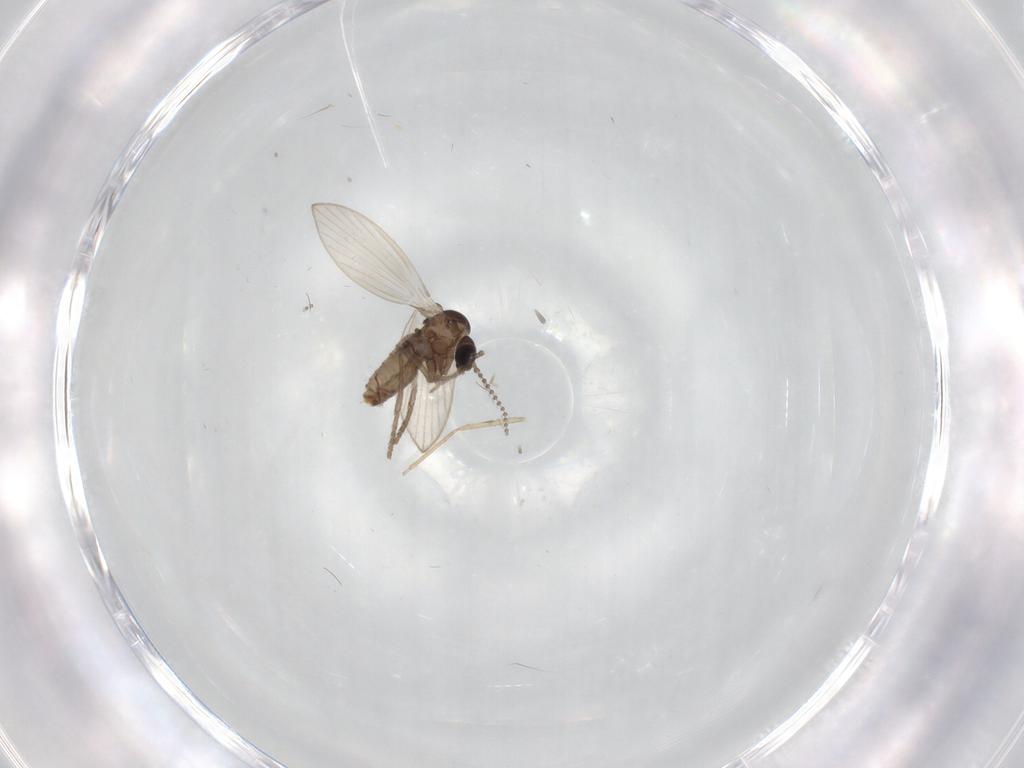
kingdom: Animalia
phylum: Arthropoda
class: Insecta
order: Diptera
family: Psychodidae
